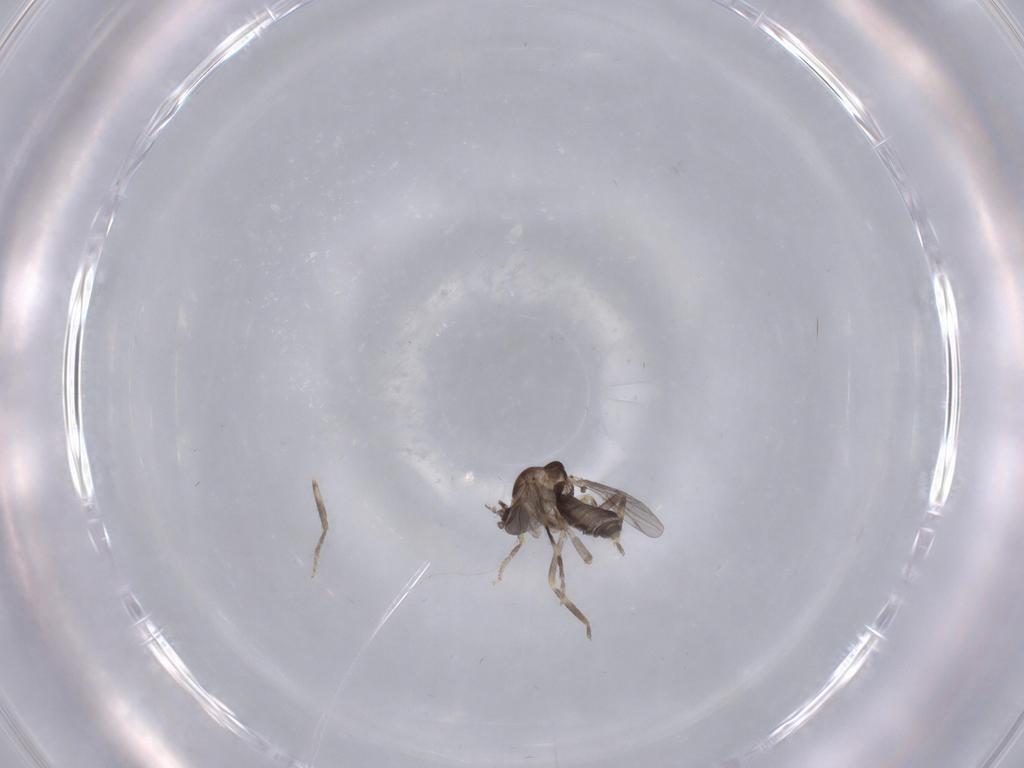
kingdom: Animalia
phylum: Arthropoda
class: Insecta
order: Diptera
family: Ceratopogonidae
